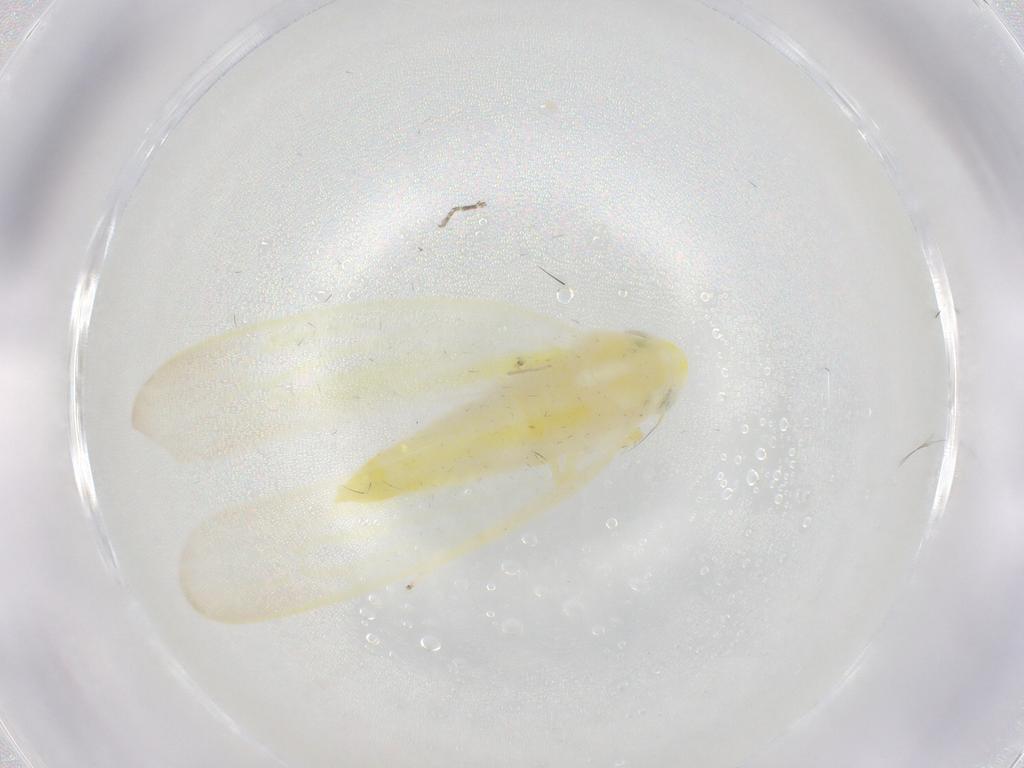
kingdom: Animalia
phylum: Arthropoda
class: Insecta
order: Hemiptera
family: Cicadellidae
